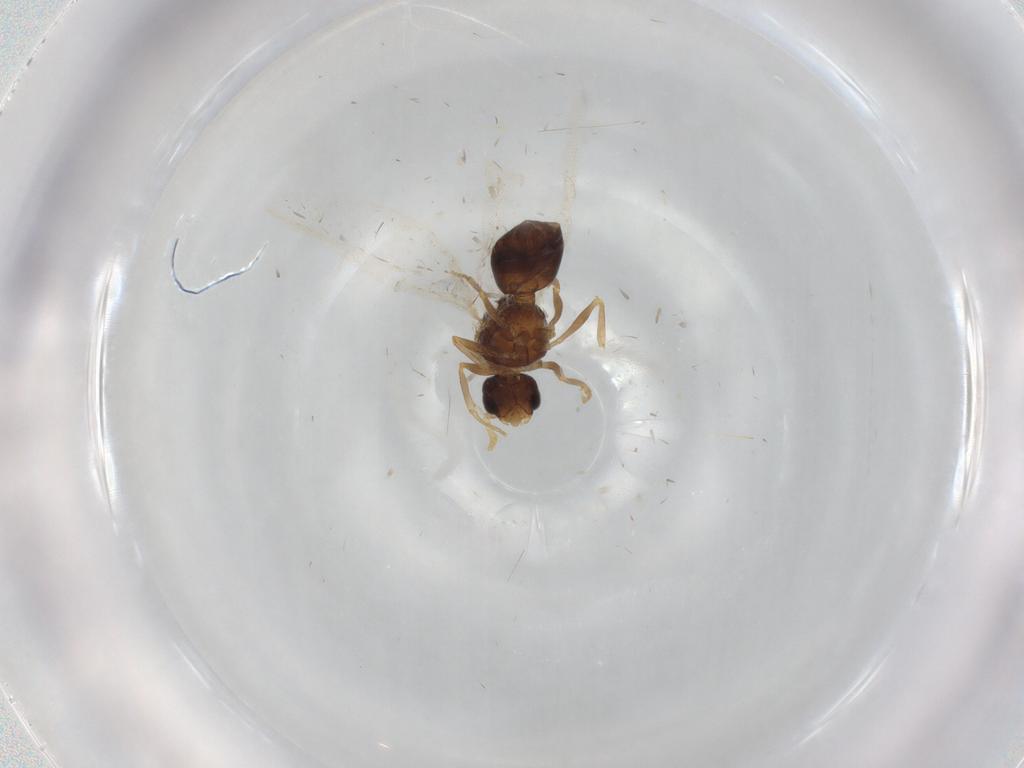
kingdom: Animalia
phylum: Arthropoda
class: Insecta
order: Hymenoptera
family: Formicidae
